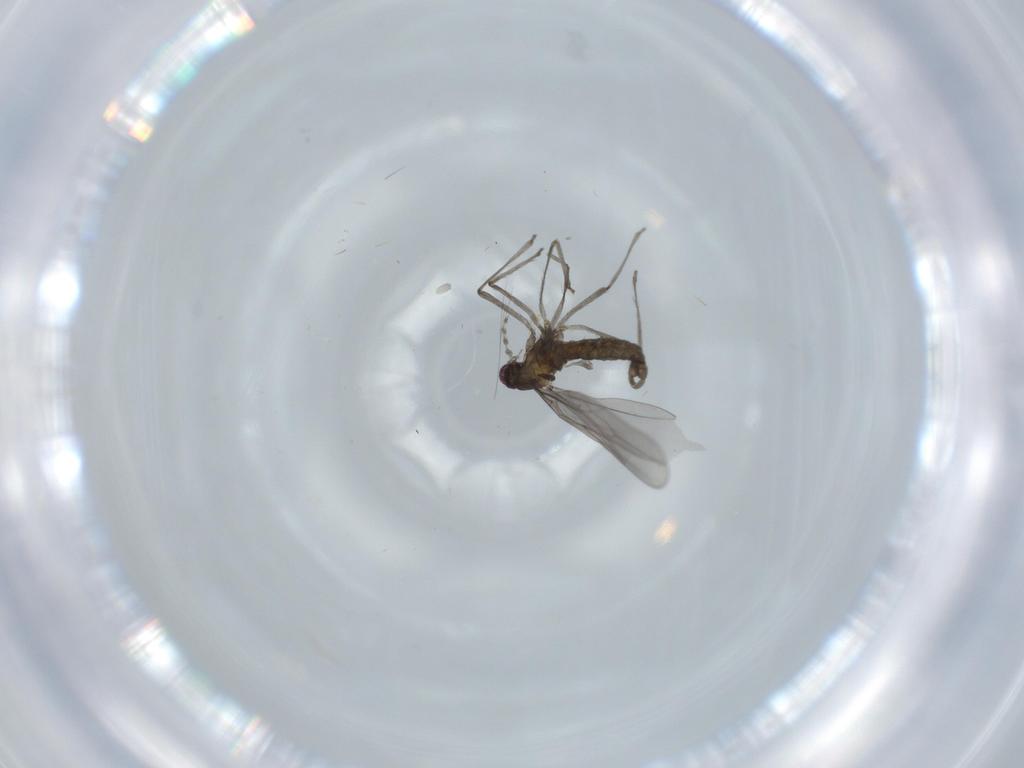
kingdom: Animalia
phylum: Arthropoda
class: Insecta
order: Diptera
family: Cecidomyiidae
